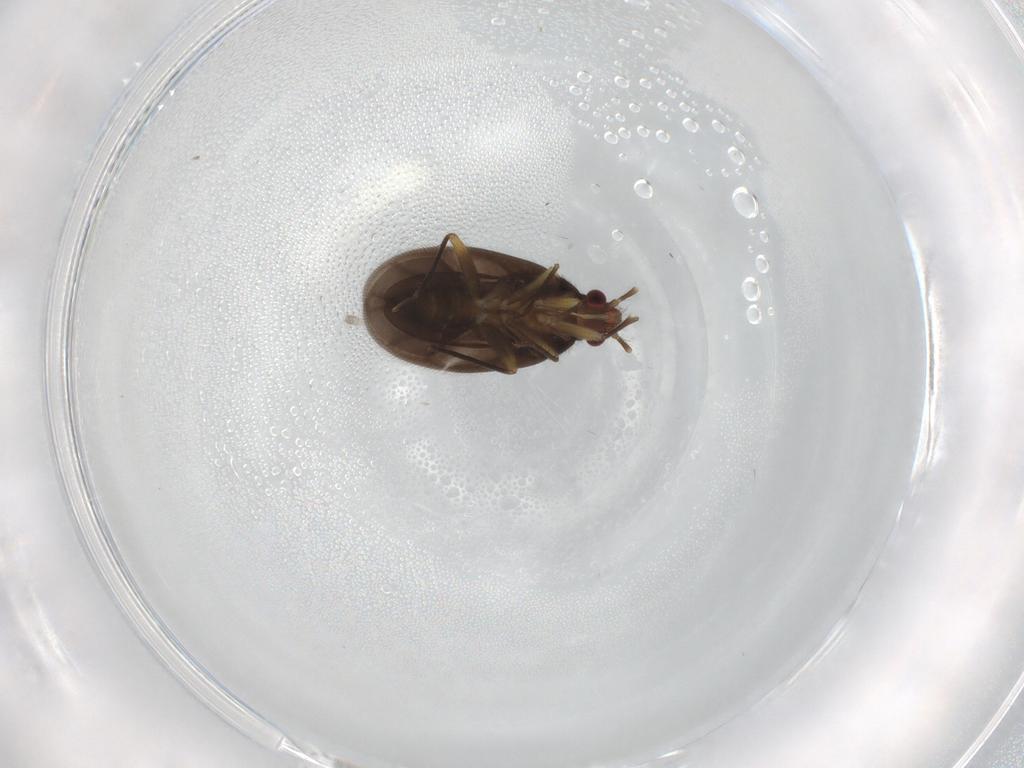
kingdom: Animalia
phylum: Arthropoda
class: Insecta
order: Hemiptera
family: Ceratocombidae
